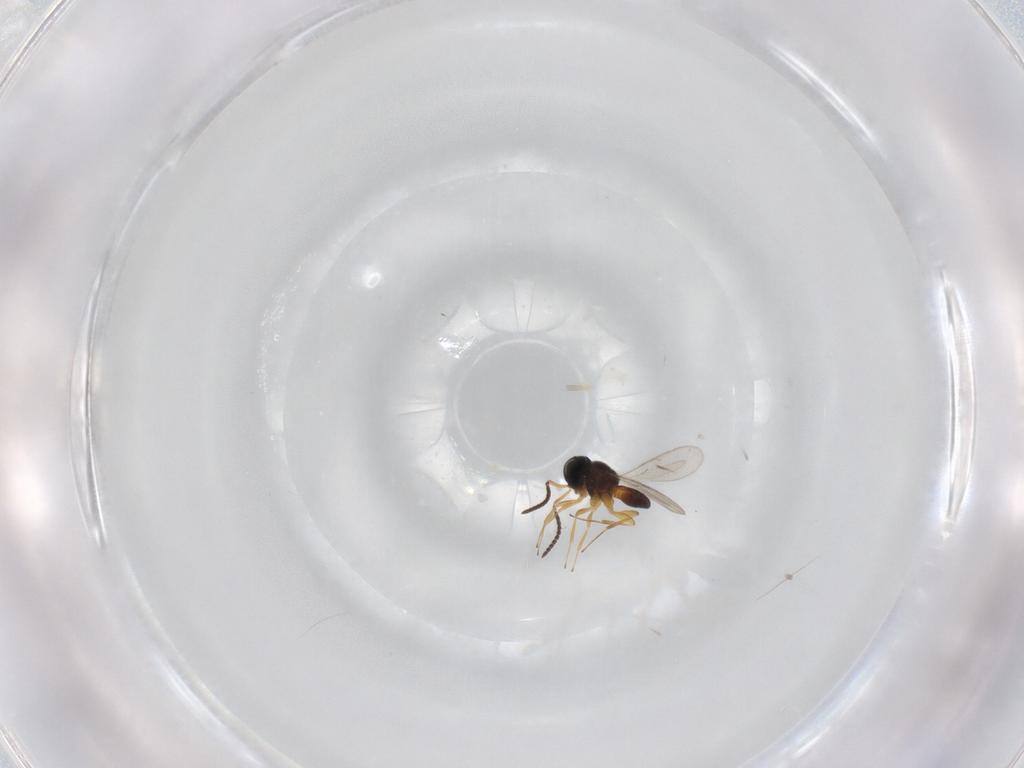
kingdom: Animalia
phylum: Arthropoda
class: Insecta
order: Hymenoptera
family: Scelionidae
